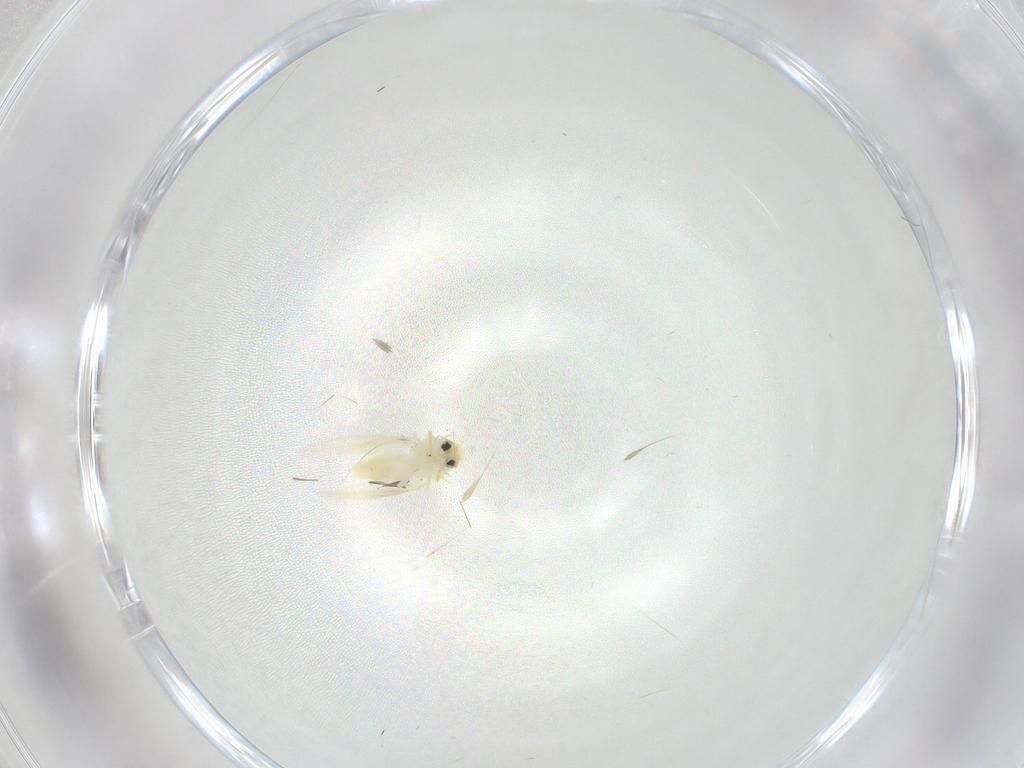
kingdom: Animalia
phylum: Arthropoda
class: Insecta
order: Hemiptera
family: Aleyrodidae
